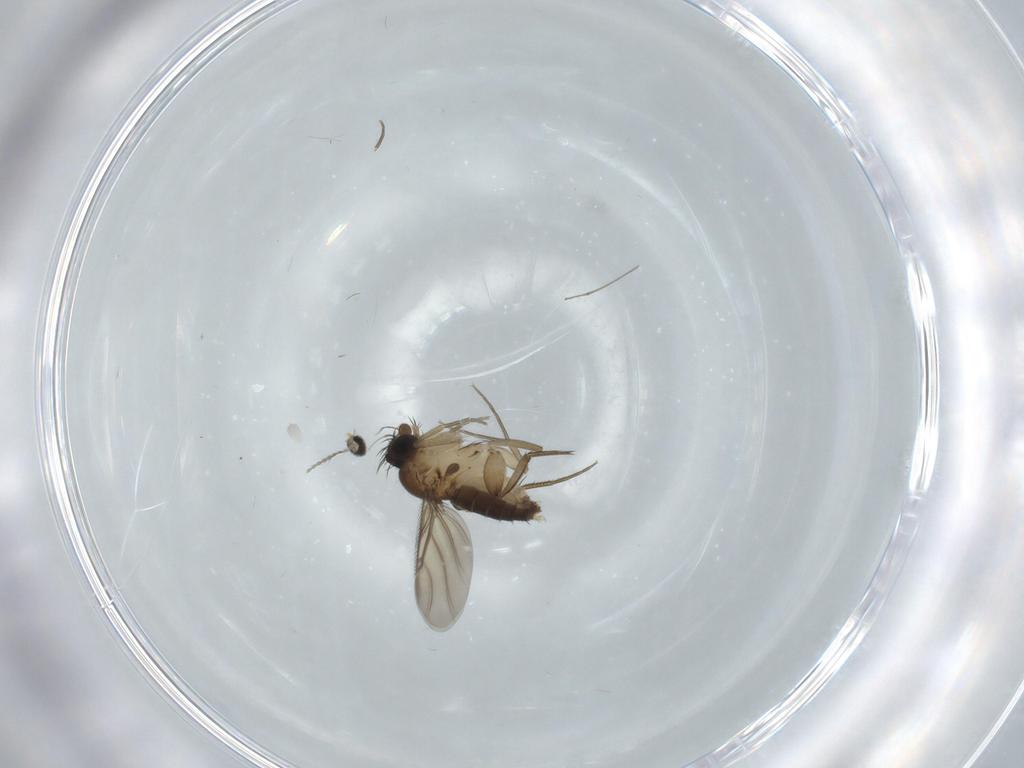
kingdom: Animalia
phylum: Arthropoda
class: Insecta
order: Diptera
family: Phoridae
